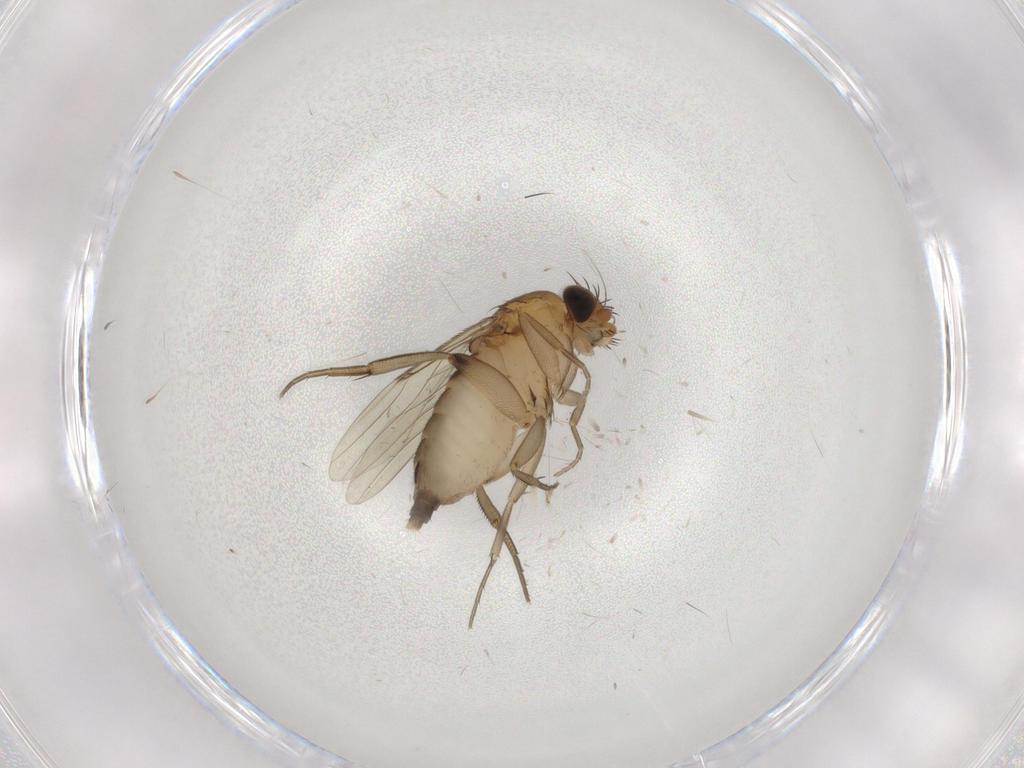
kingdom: Animalia
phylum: Arthropoda
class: Insecta
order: Diptera
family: Phoridae
